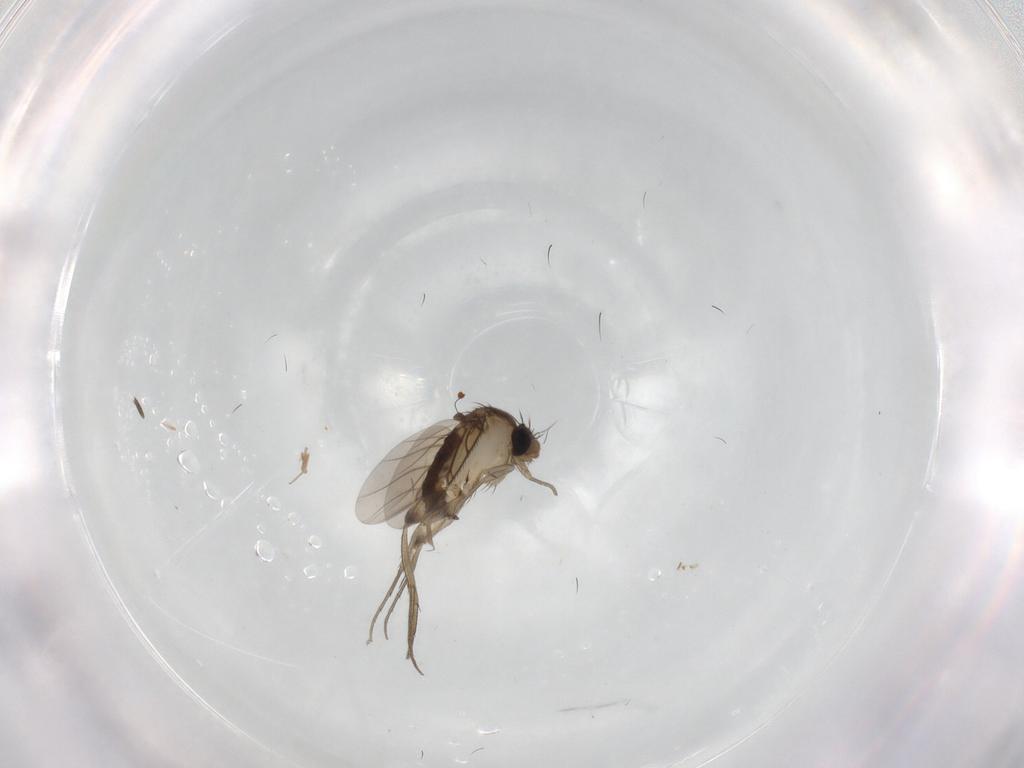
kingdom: Animalia
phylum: Arthropoda
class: Insecta
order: Diptera
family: Phoridae
